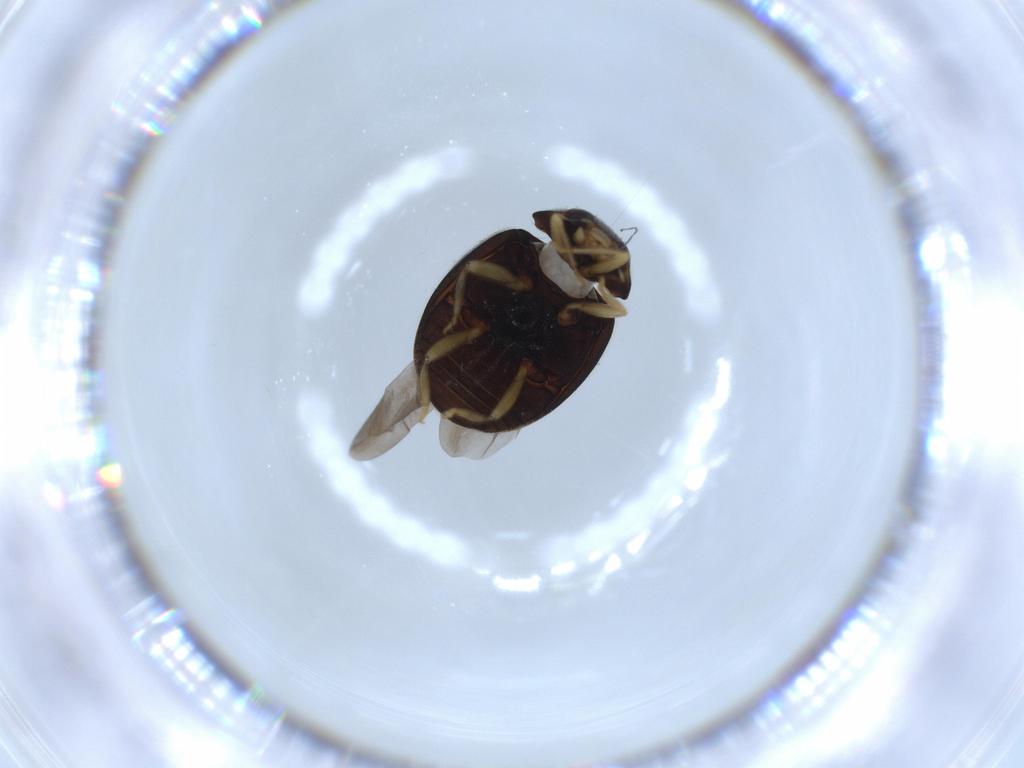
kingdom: Animalia
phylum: Arthropoda
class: Insecta
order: Coleoptera
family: Coccinellidae
